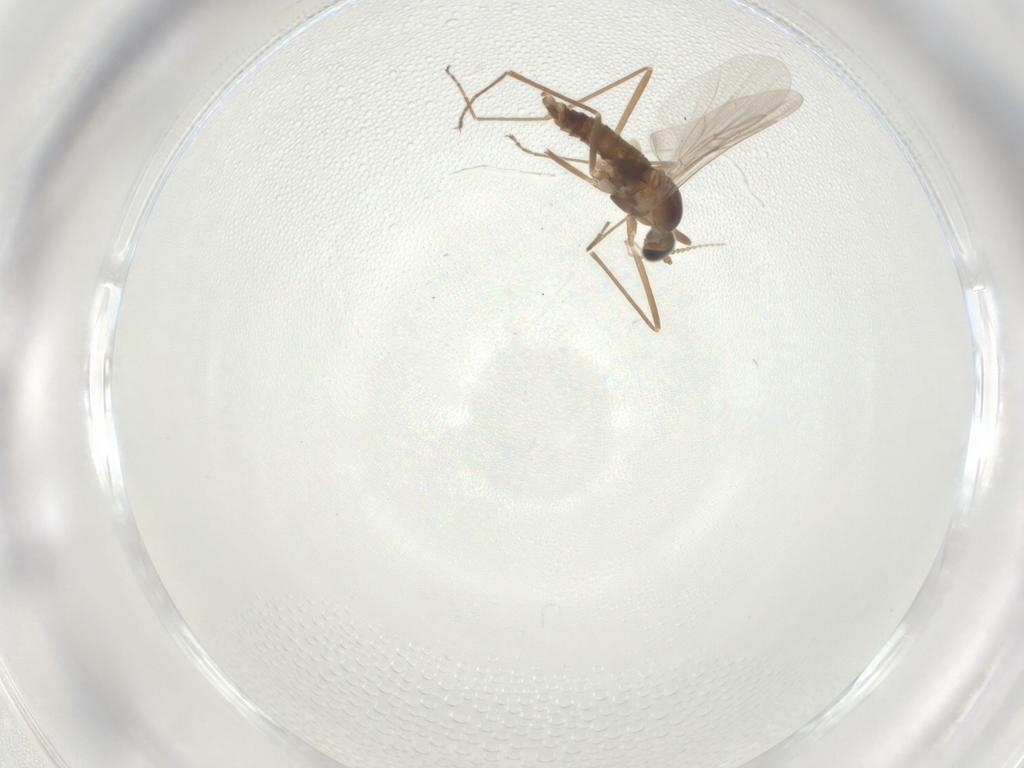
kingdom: Animalia
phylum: Arthropoda
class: Insecta
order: Diptera
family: Cecidomyiidae
